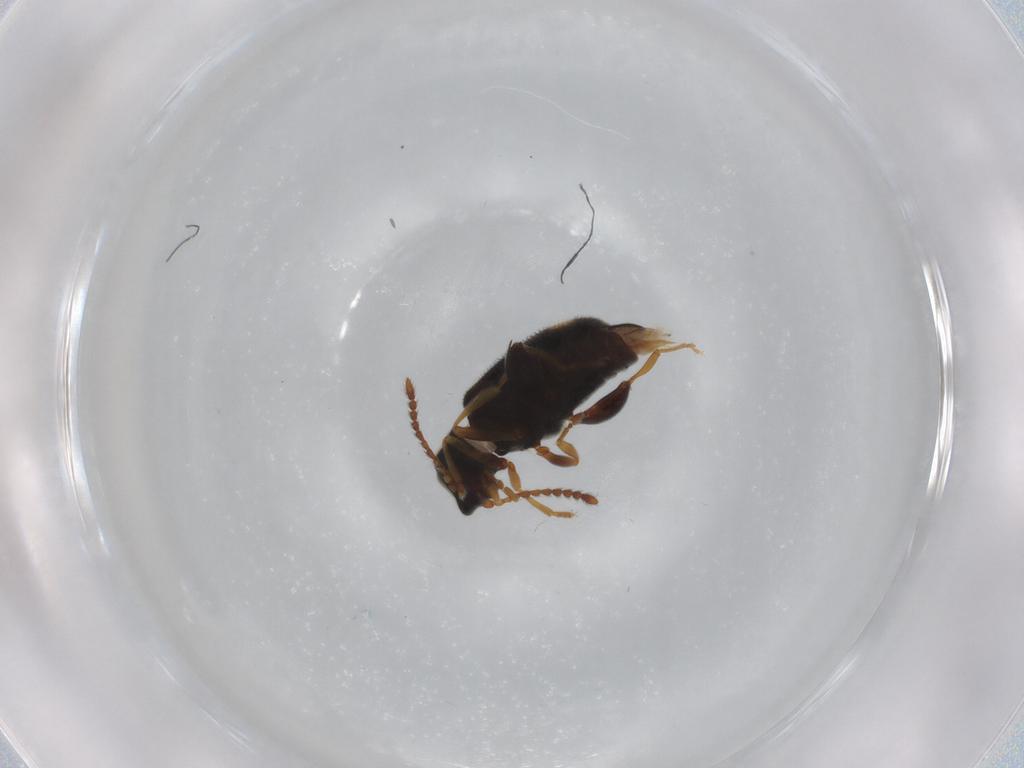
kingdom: Animalia
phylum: Arthropoda
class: Insecta
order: Coleoptera
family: Aderidae
